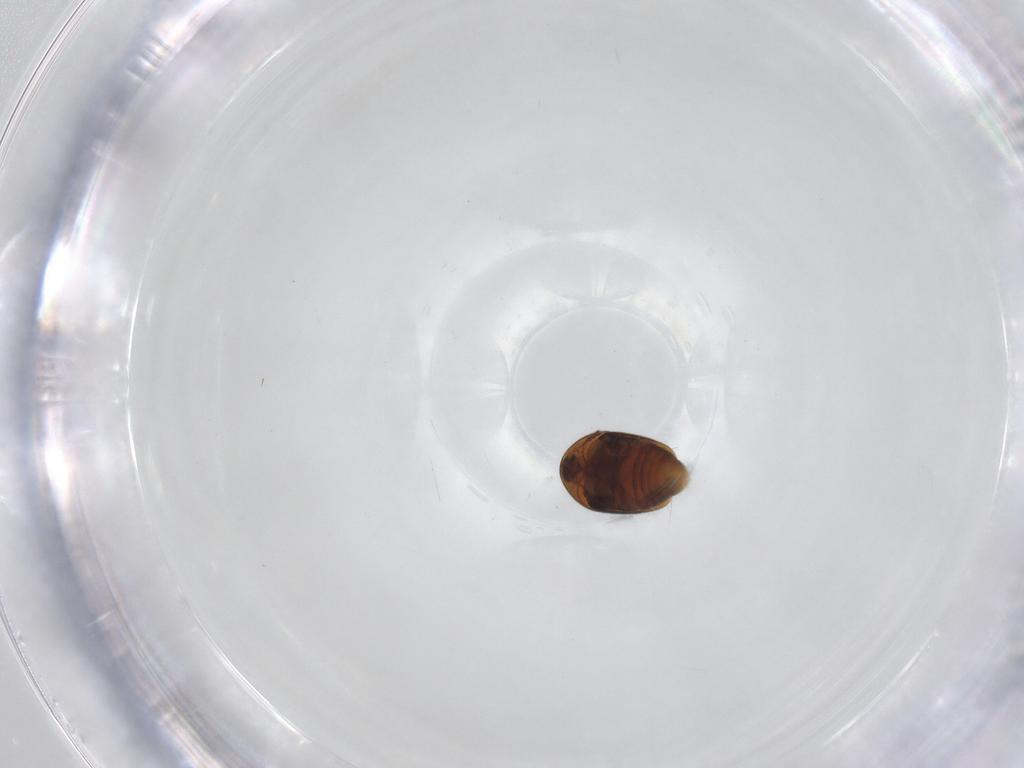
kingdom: Animalia
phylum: Arthropoda
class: Insecta
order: Coleoptera
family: Corylophidae
